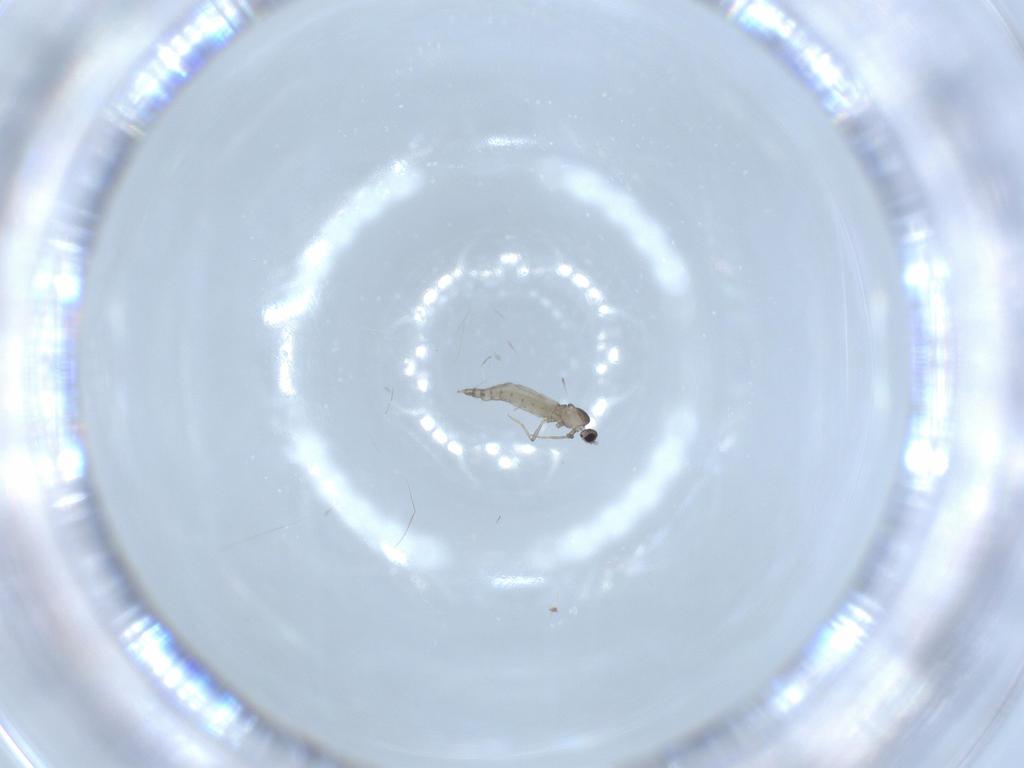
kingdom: Animalia
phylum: Arthropoda
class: Insecta
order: Diptera
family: Cecidomyiidae
